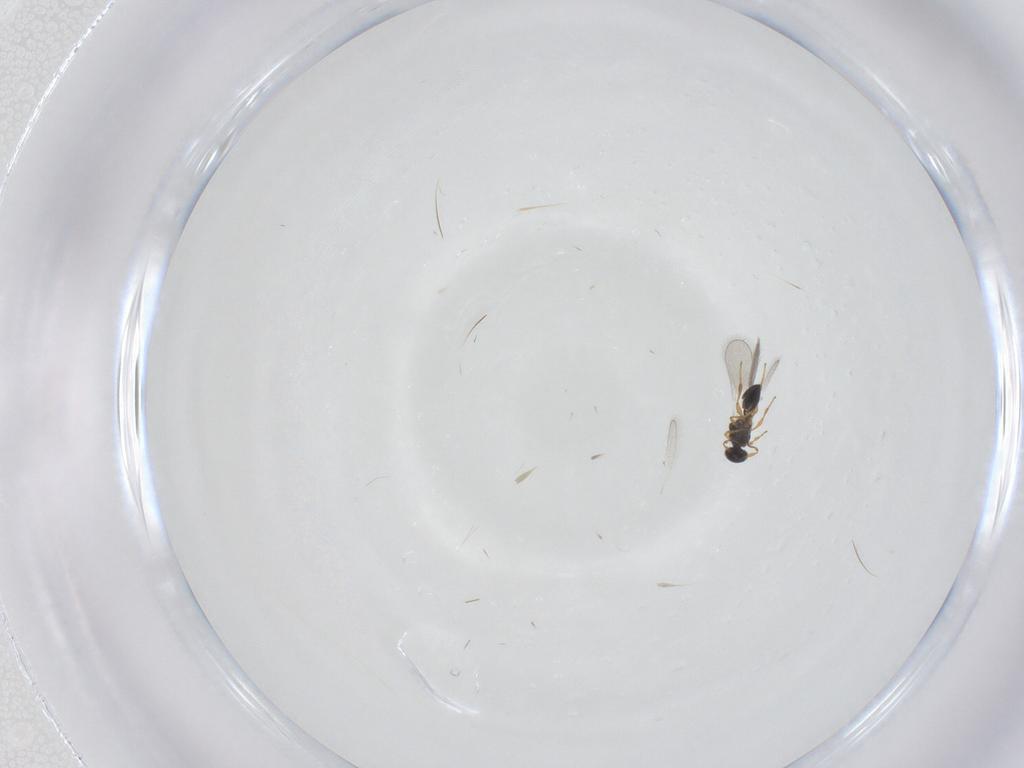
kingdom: Animalia
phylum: Arthropoda
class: Insecta
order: Hymenoptera
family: Platygastridae
